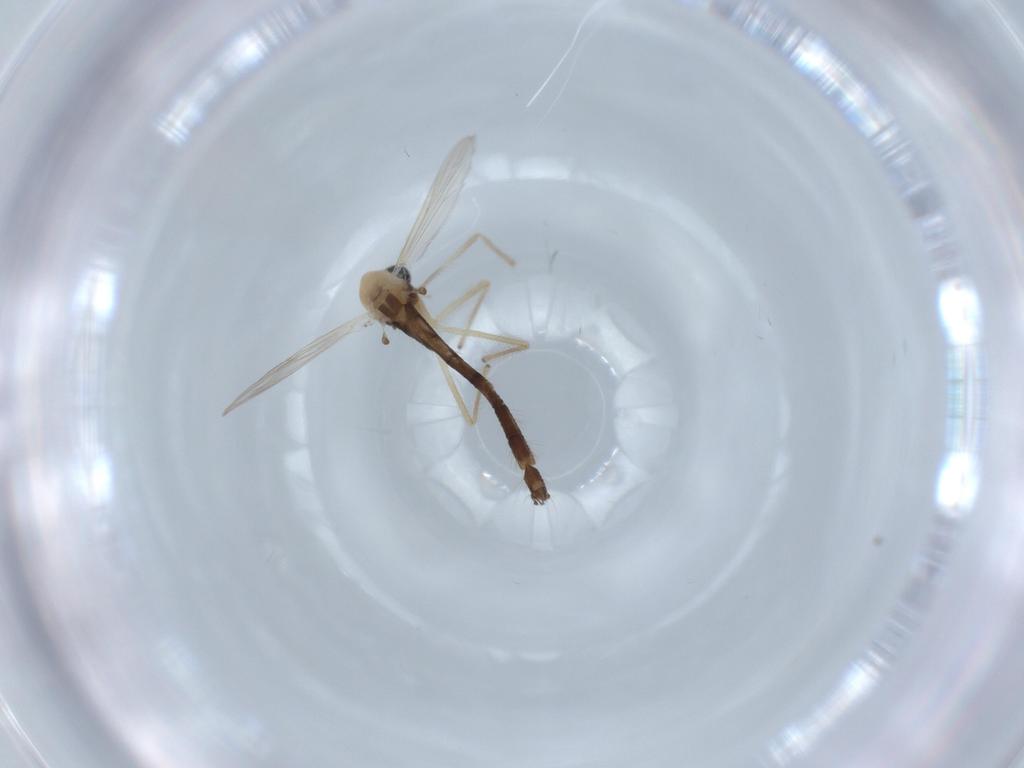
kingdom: Animalia
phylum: Arthropoda
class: Insecta
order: Diptera
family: Chironomidae
